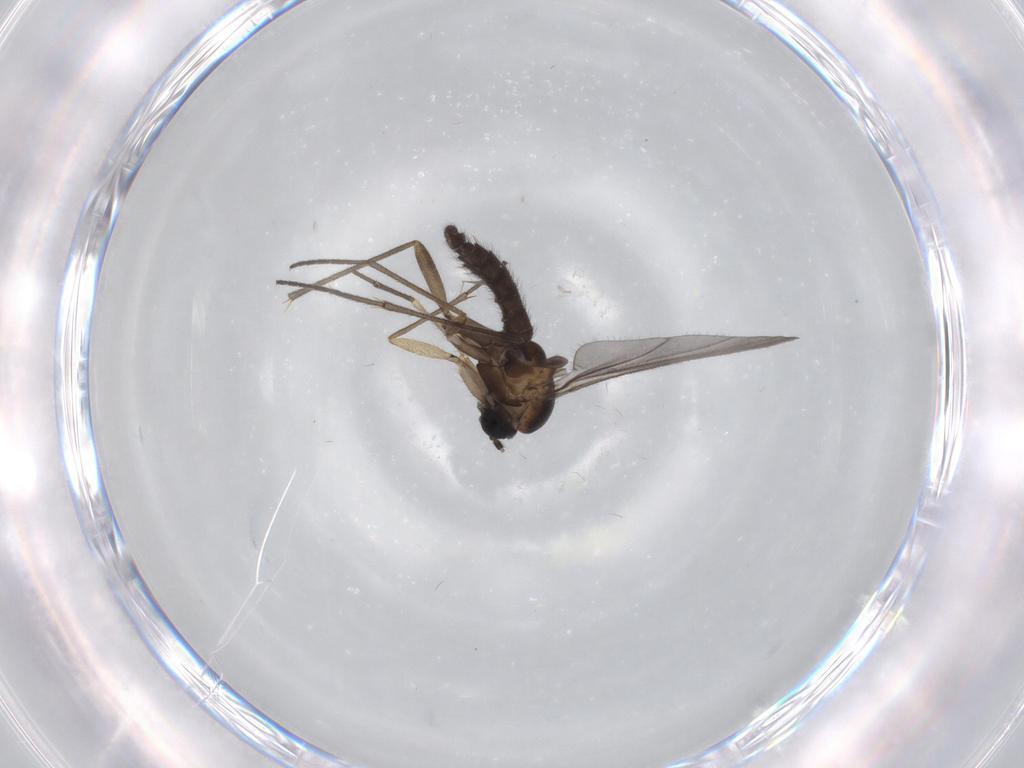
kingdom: Animalia
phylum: Arthropoda
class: Insecta
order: Diptera
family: Sciaridae
